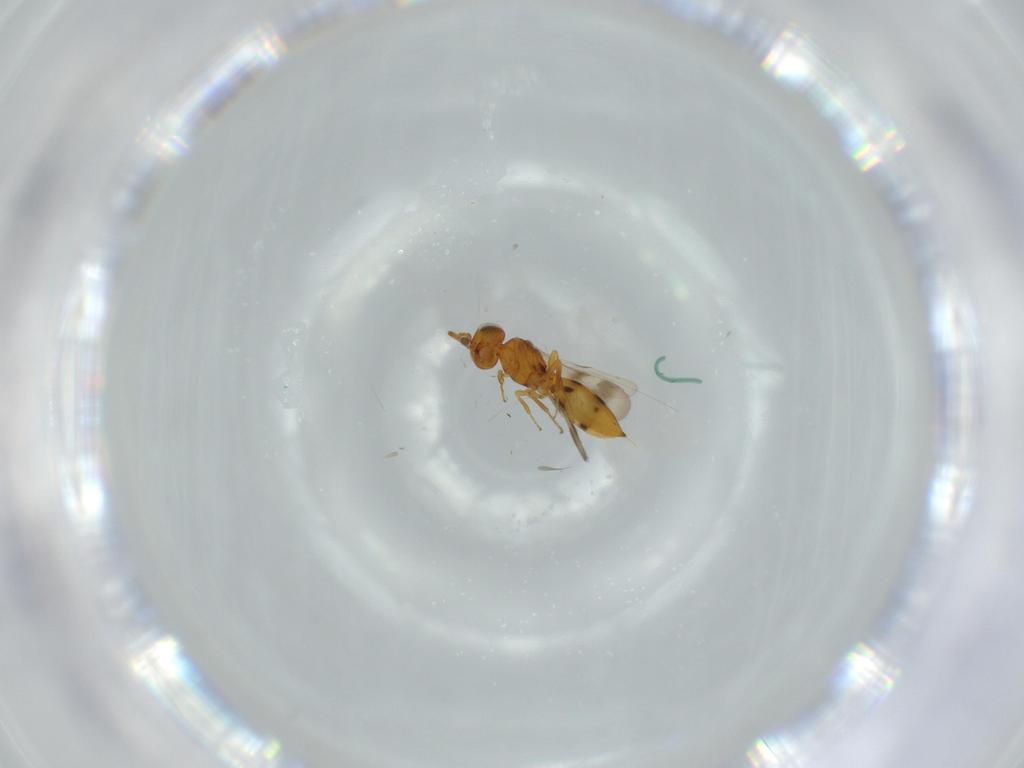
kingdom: Animalia
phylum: Arthropoda
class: Insecta
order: Hymenoptera
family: Scelionidae
